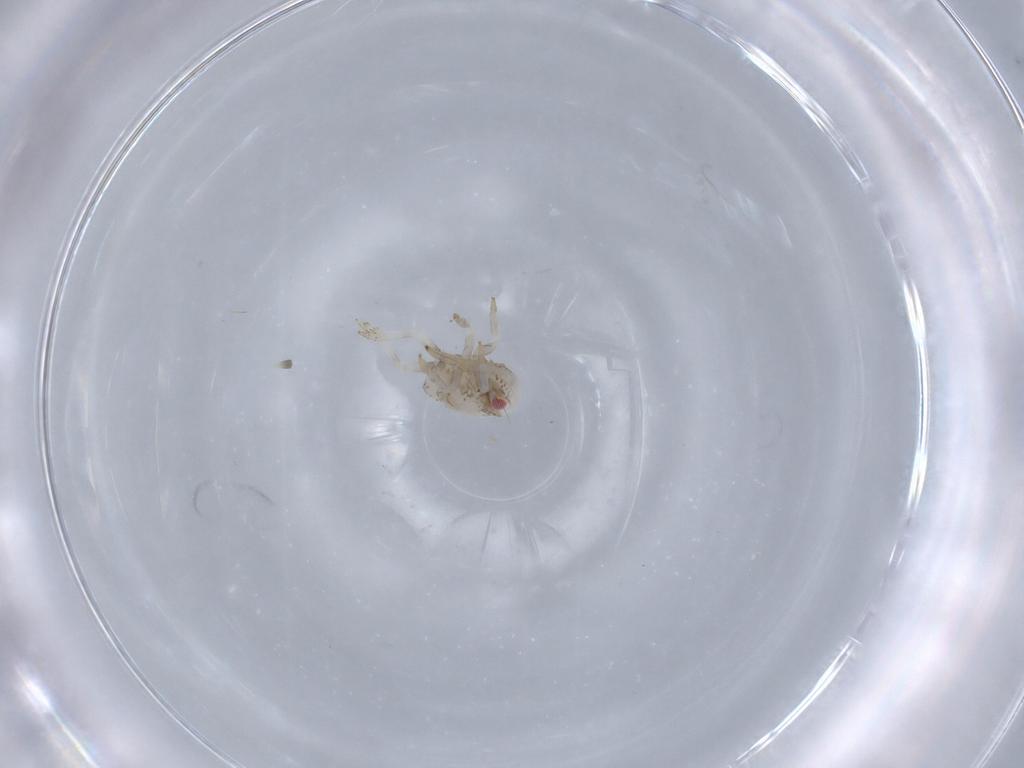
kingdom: Animalia
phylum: Arthropoda
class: Insecta
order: Hemiptera
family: Acanaloniidae
